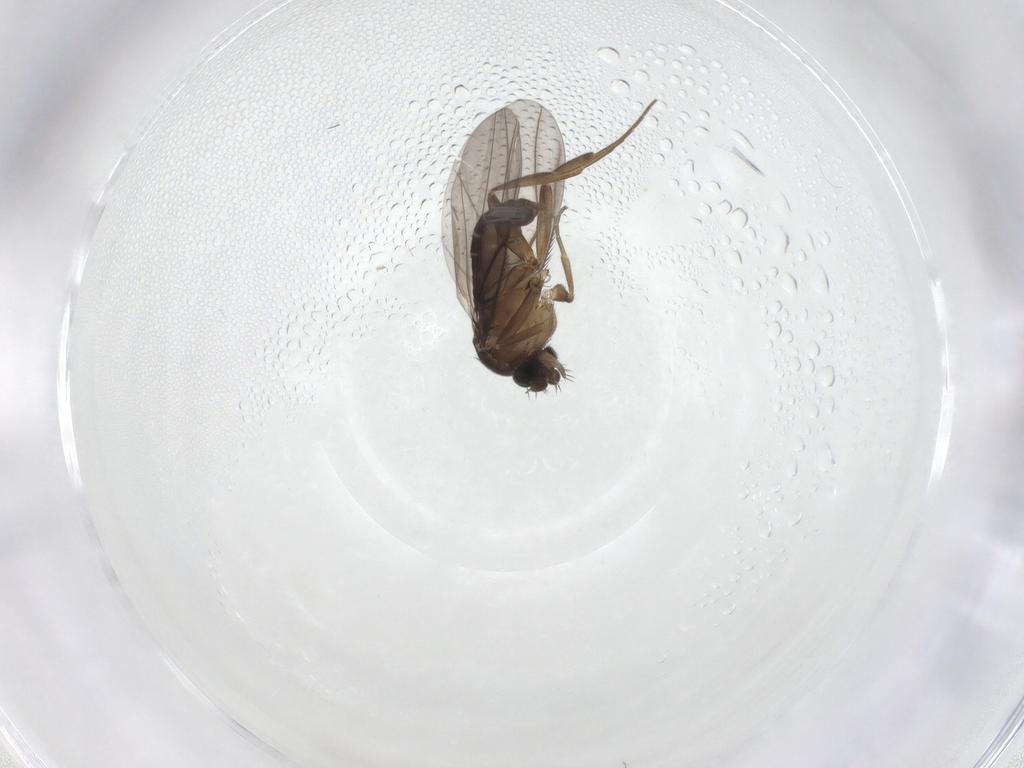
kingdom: Animalia
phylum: Arthropoda
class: Insecta
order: Diptera
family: Phoridae
